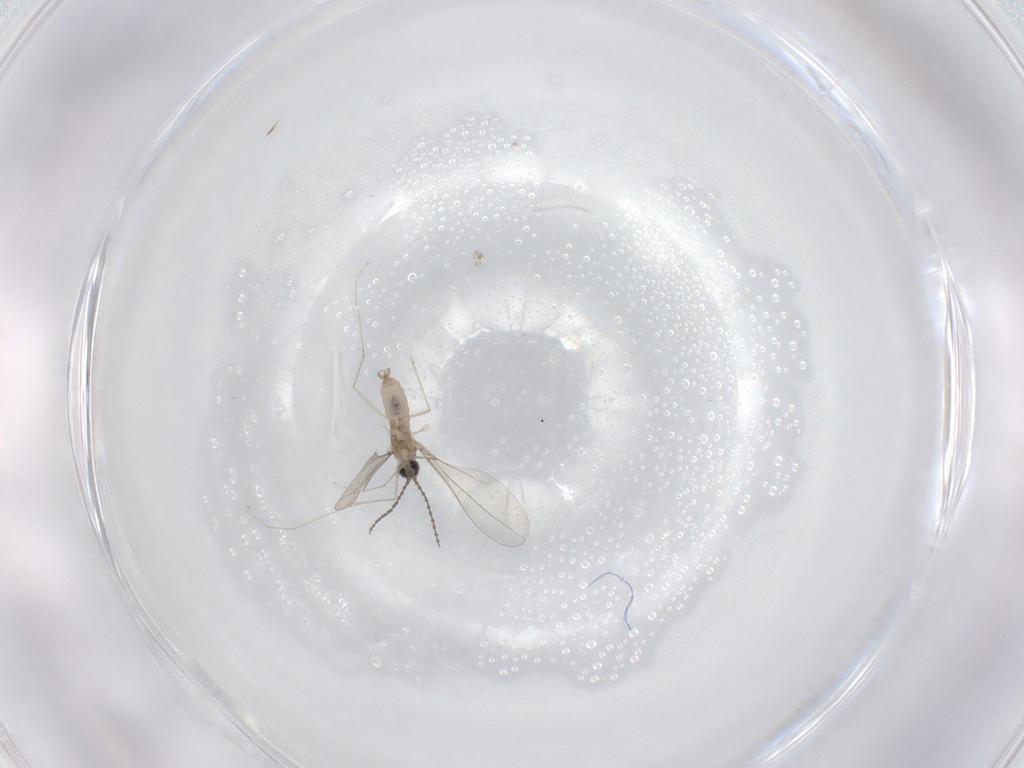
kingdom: Animalia
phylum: Arthropoda
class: Insecta
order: Diptera
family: Cecidomyiidae
